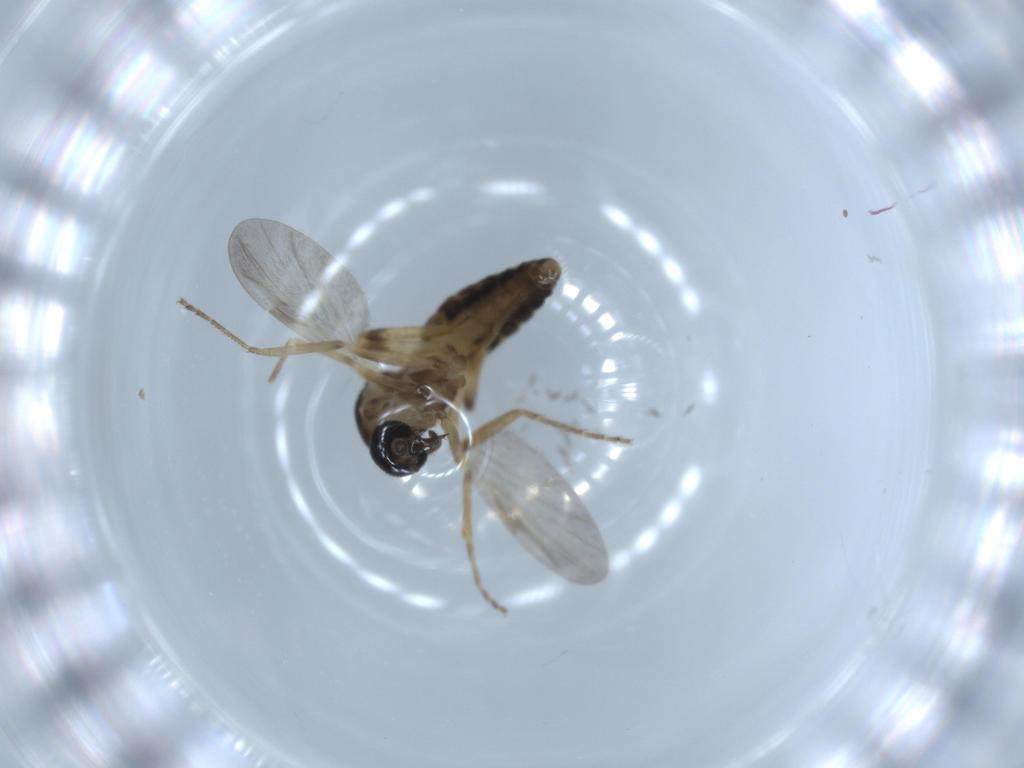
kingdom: Animalia
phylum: Arthropoda
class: Insecta
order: Diptera
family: Ceratopogonidae
